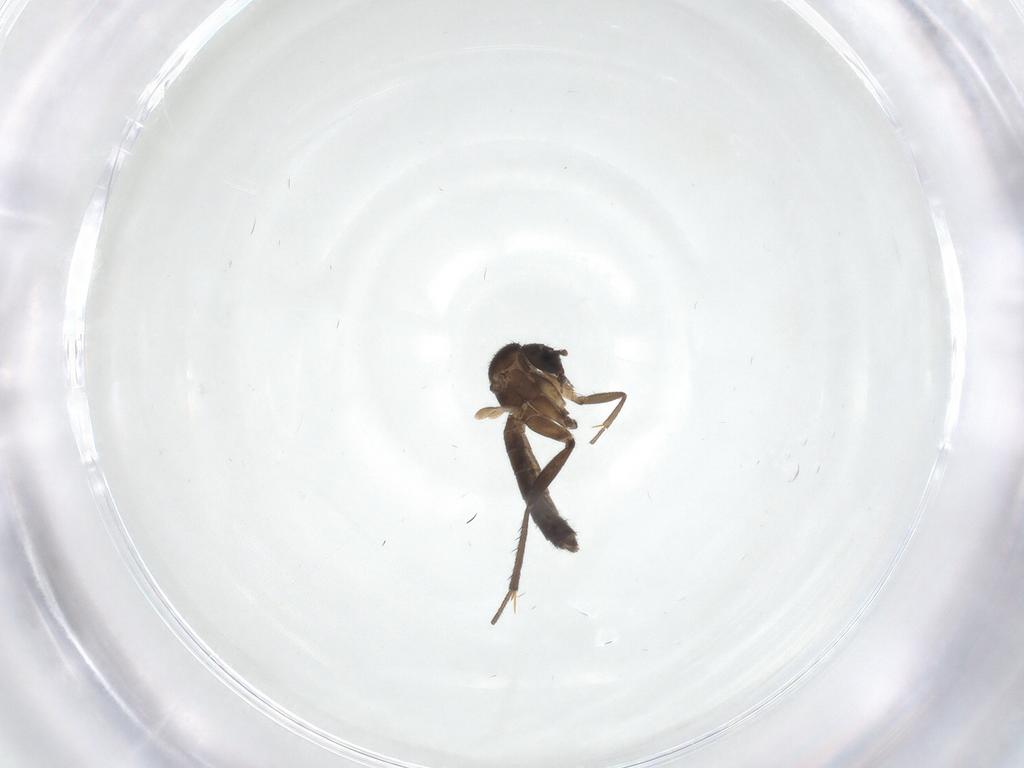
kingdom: Animalia
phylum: Arthropoda
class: Insecta
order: Diptera
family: Mycetophilidae
